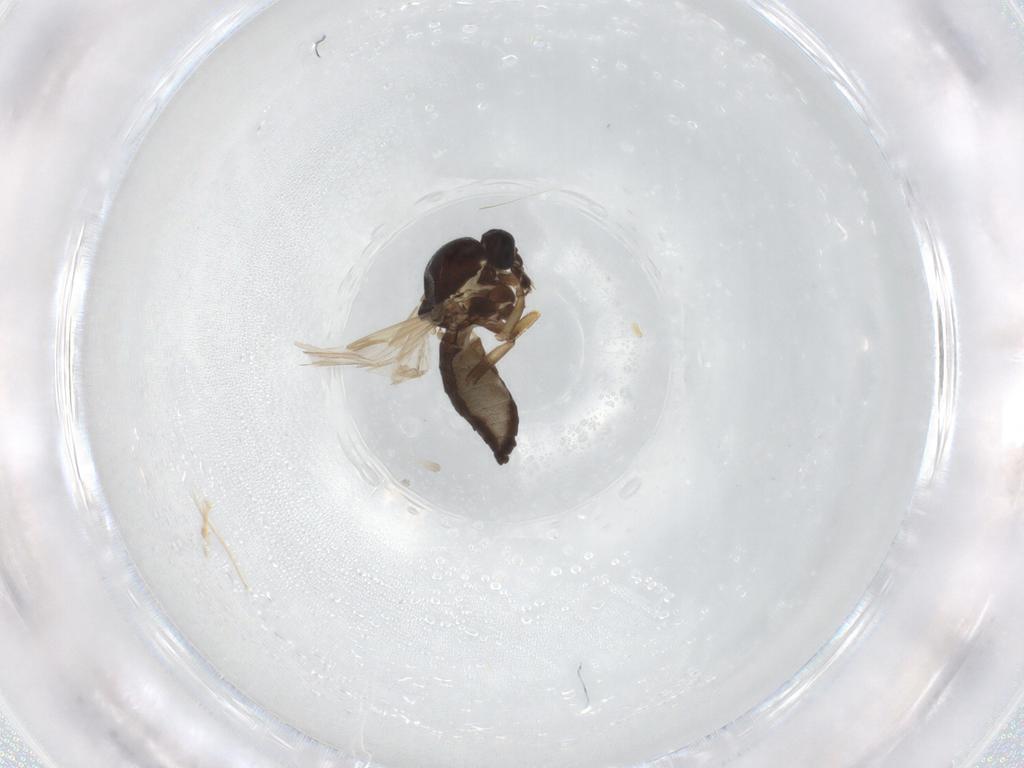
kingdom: Animalia
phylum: Arthropoda
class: Insecta
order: Diptera
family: Ceratopogonidae
